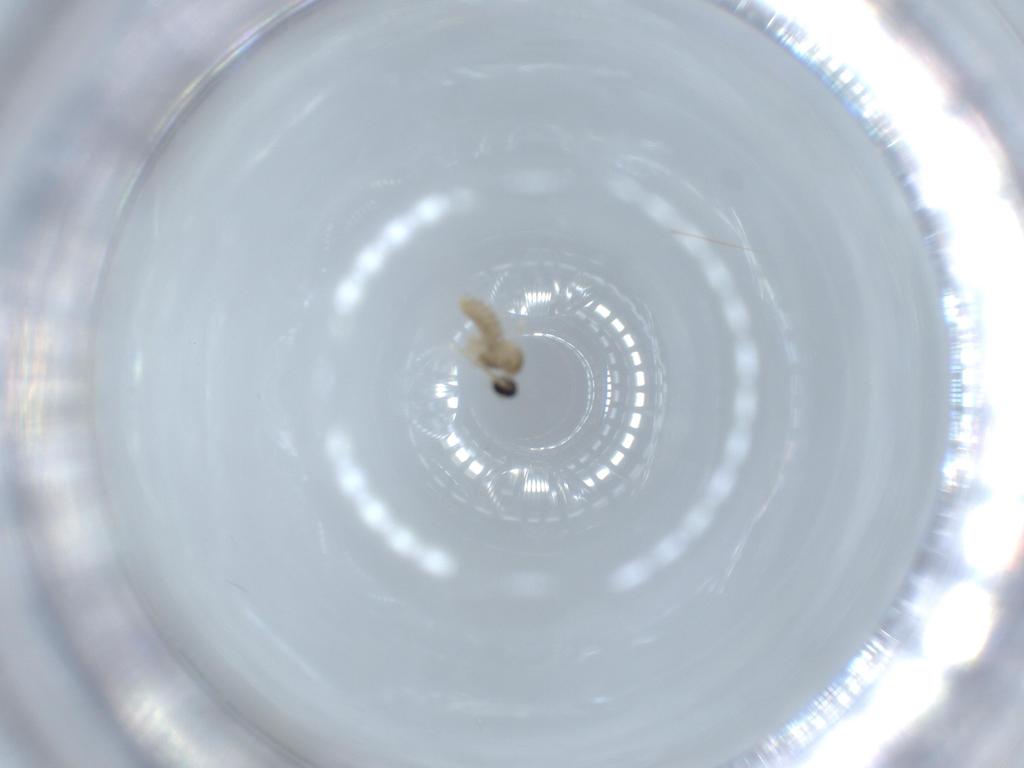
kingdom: Animalia
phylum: Arthropoda
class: Insecta
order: Diptera
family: Cecidomyiidae
